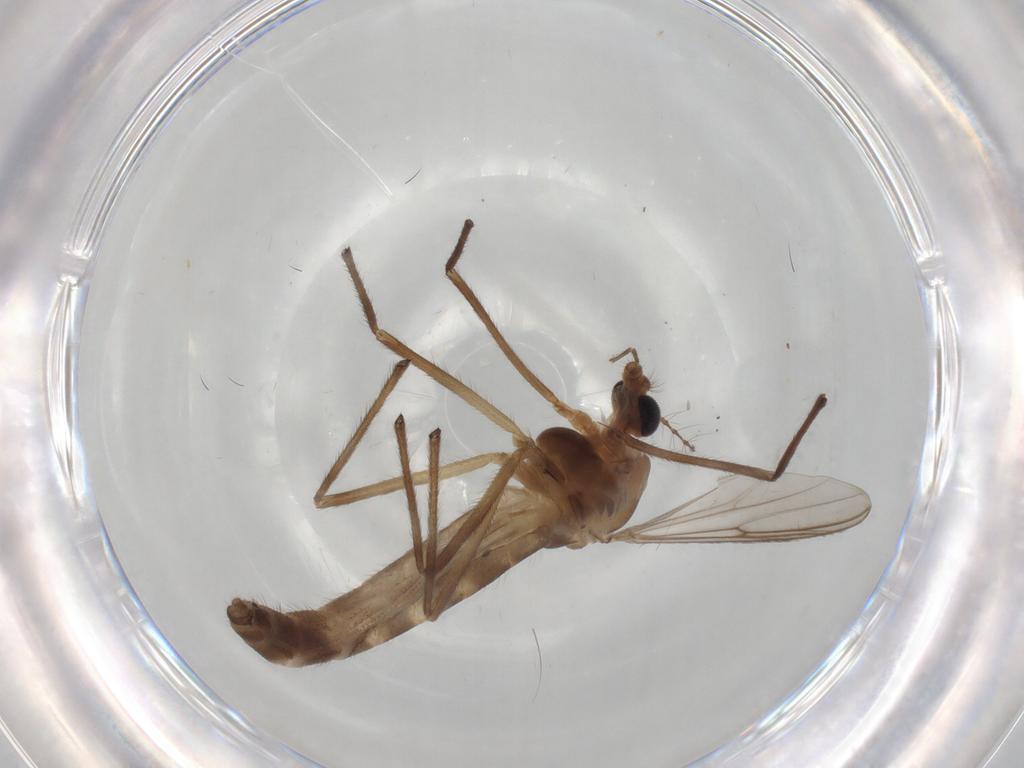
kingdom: Animalia
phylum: Arthropoda
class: Insecta
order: Diptera
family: Chironomidae
